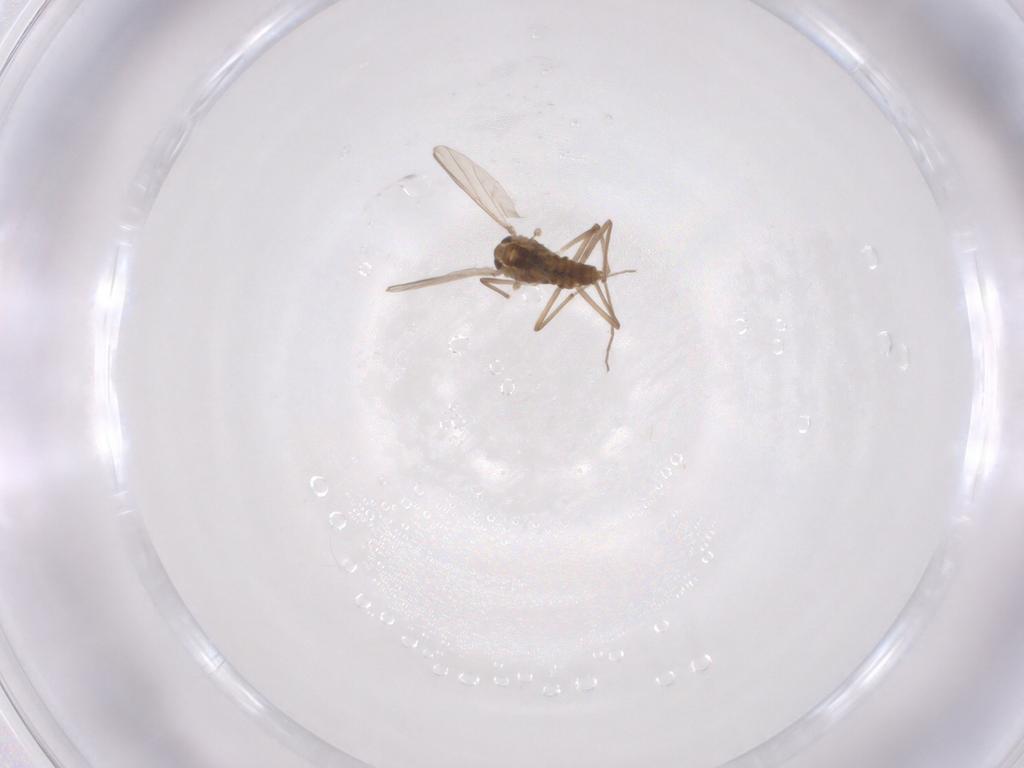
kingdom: Animalia
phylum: Arthropoda
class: Insecta
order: Diptera
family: Chironomidae
